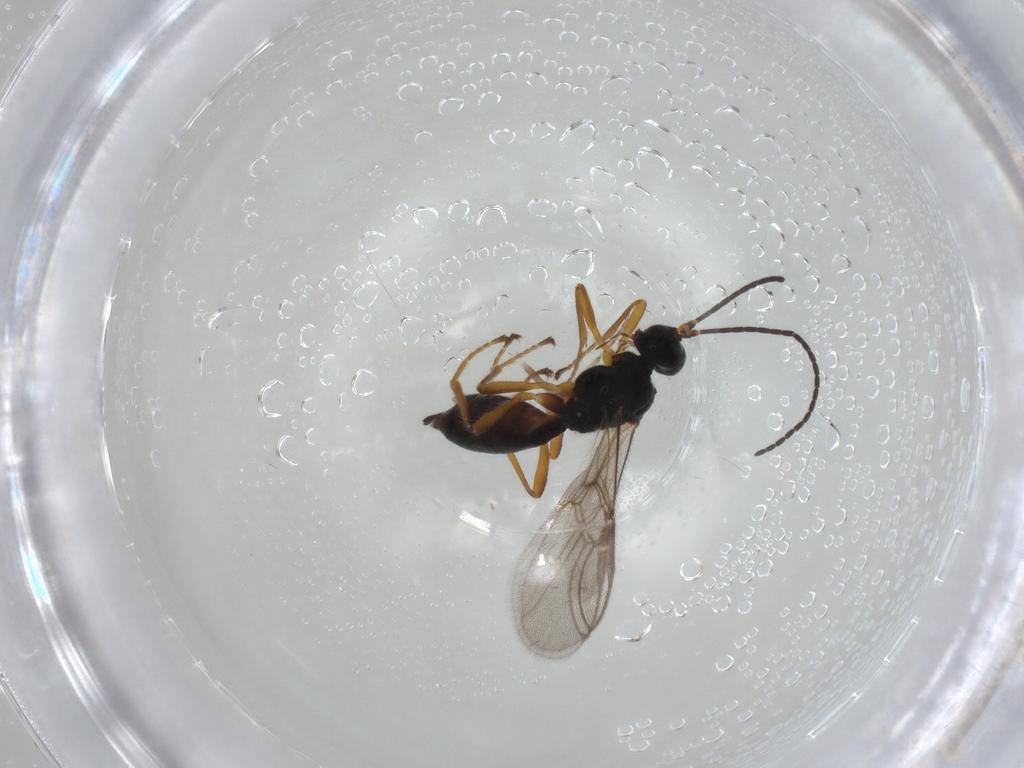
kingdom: Animalia
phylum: Arthropoda
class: Insecta
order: Hymenoptera
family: Braconidae
